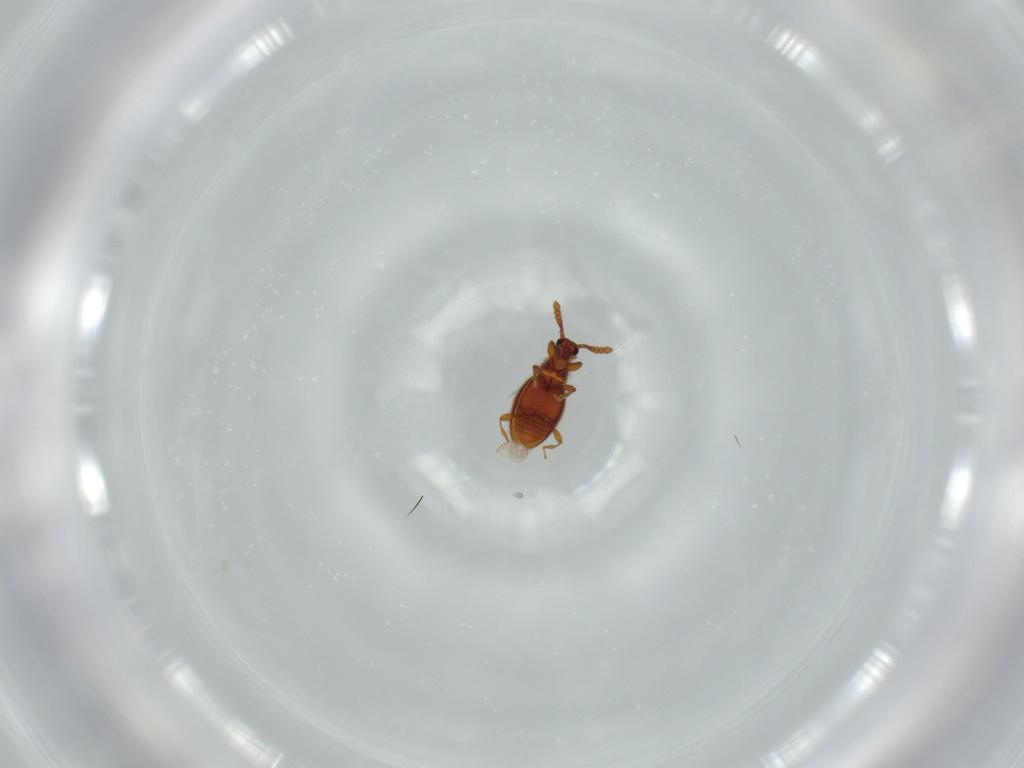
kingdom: Animalia
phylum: Arthropoda
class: Insecta
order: Coleoptera
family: Staphylinidae
